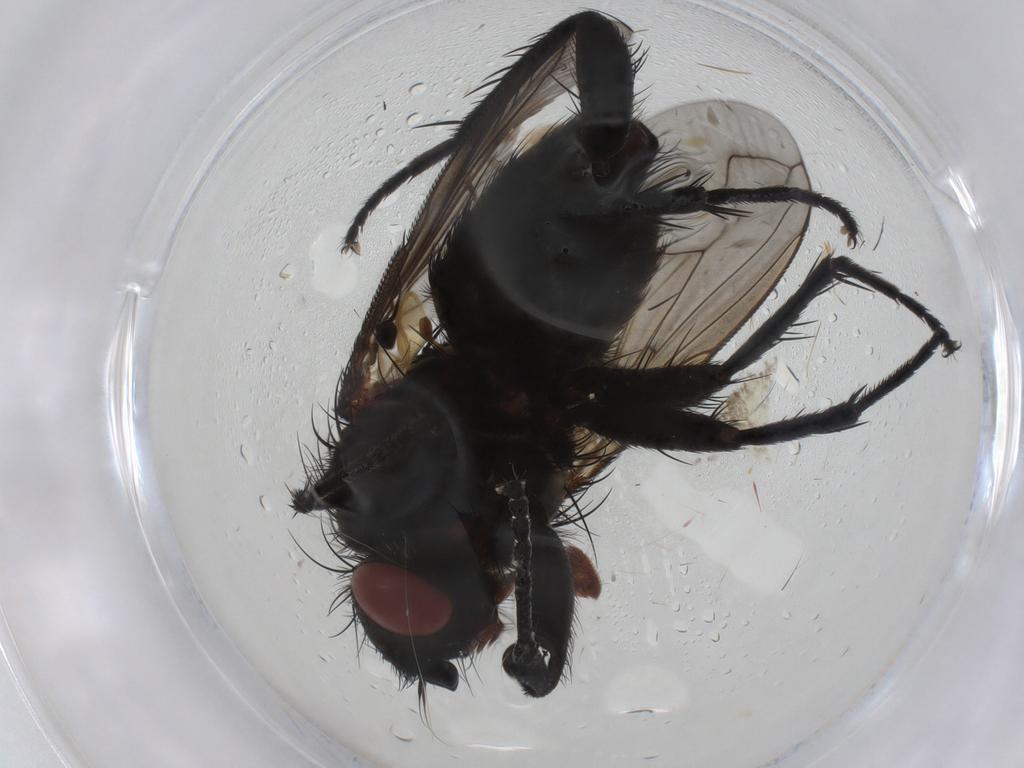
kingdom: Animalia
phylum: Arthropoda
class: Insecta
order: Diptera
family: Tachinidae
